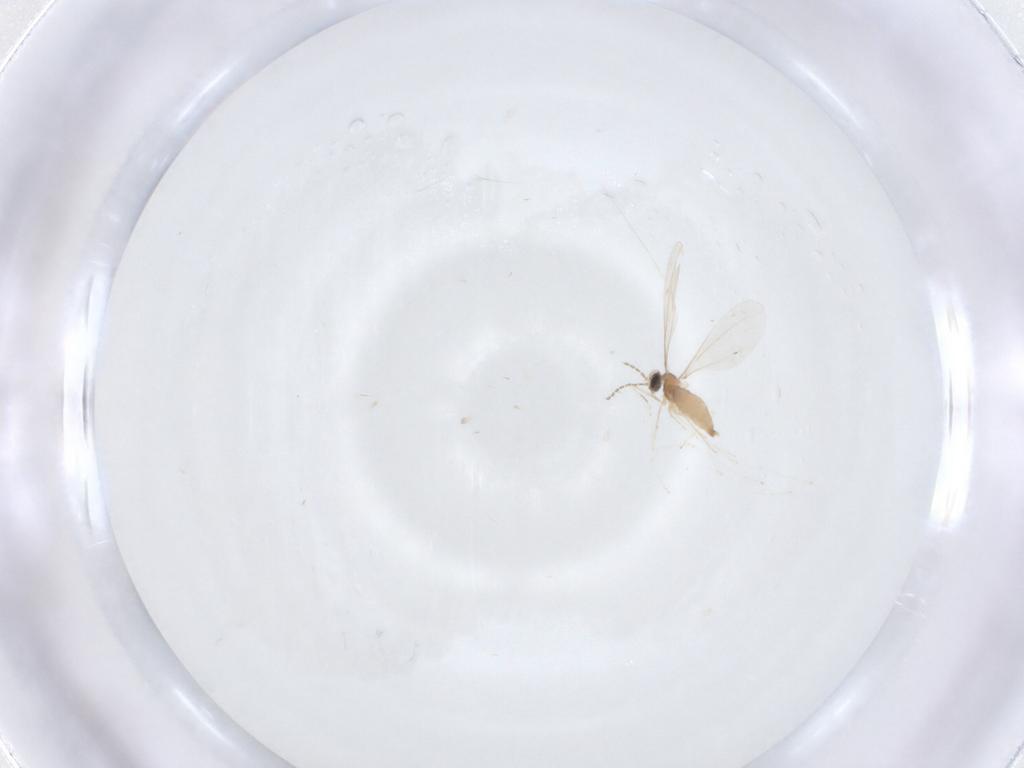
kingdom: Animalia
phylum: Arthropoda
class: Insecta
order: Diptera
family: Cecidomyiidae
